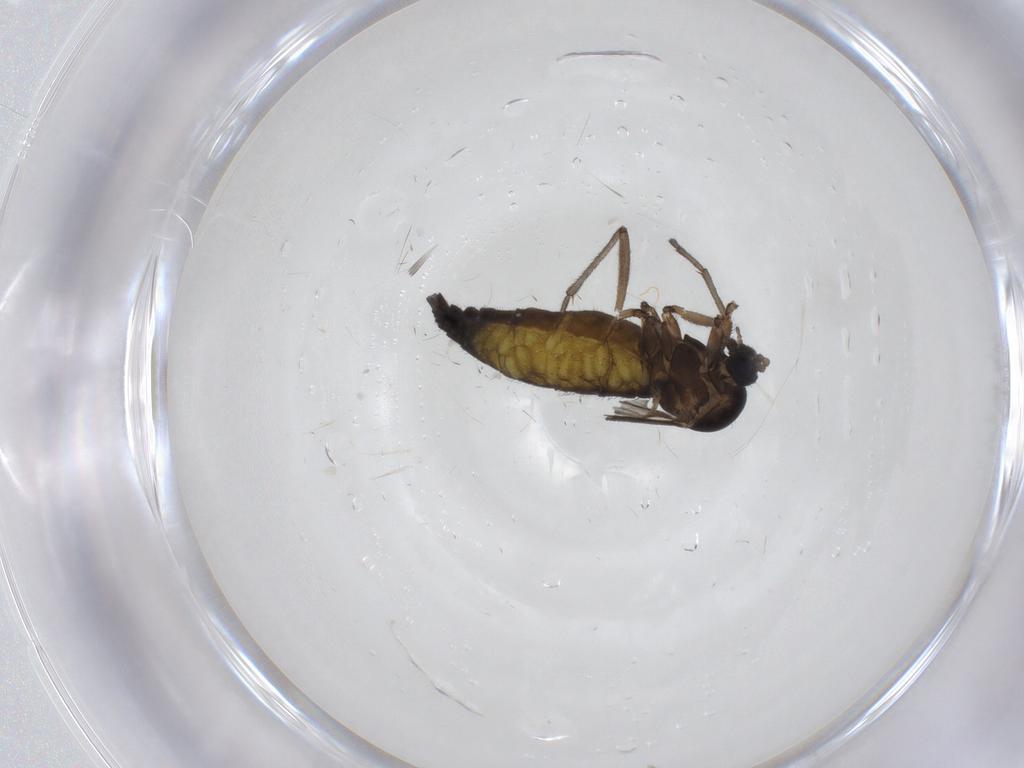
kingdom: Animalia
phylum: Arthropoda
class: Insecta
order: Diptera
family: Sciaridae
